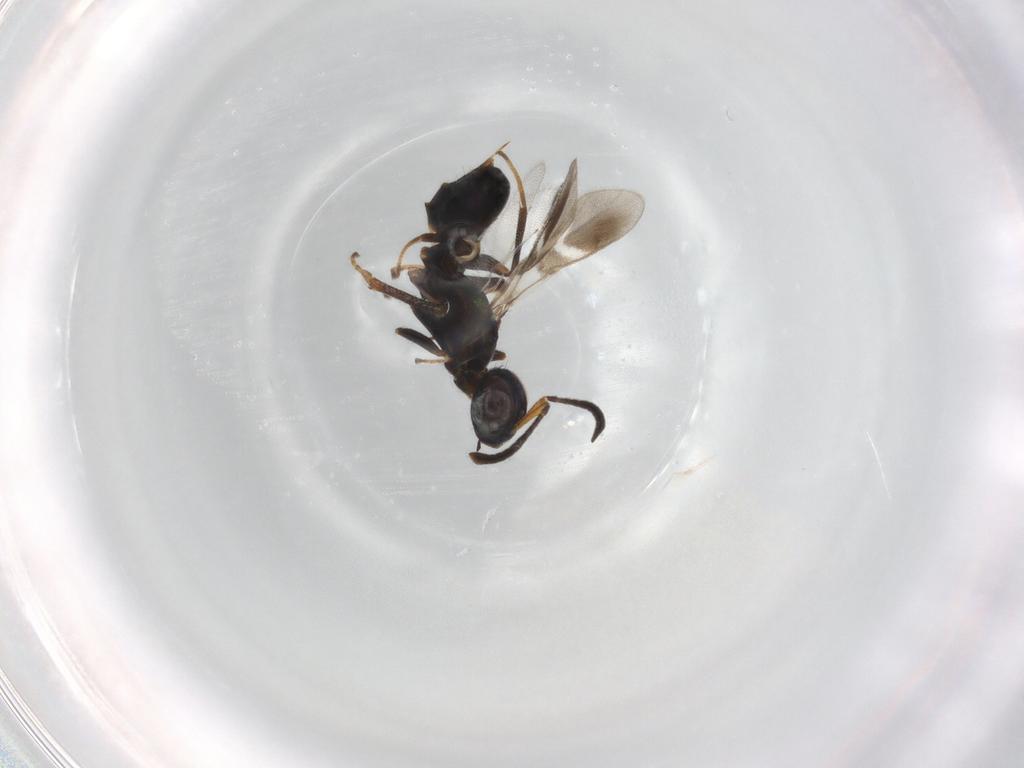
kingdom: Animalia
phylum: Arthropoda
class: Insecta
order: Hymenoptera
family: Eupelmidae
